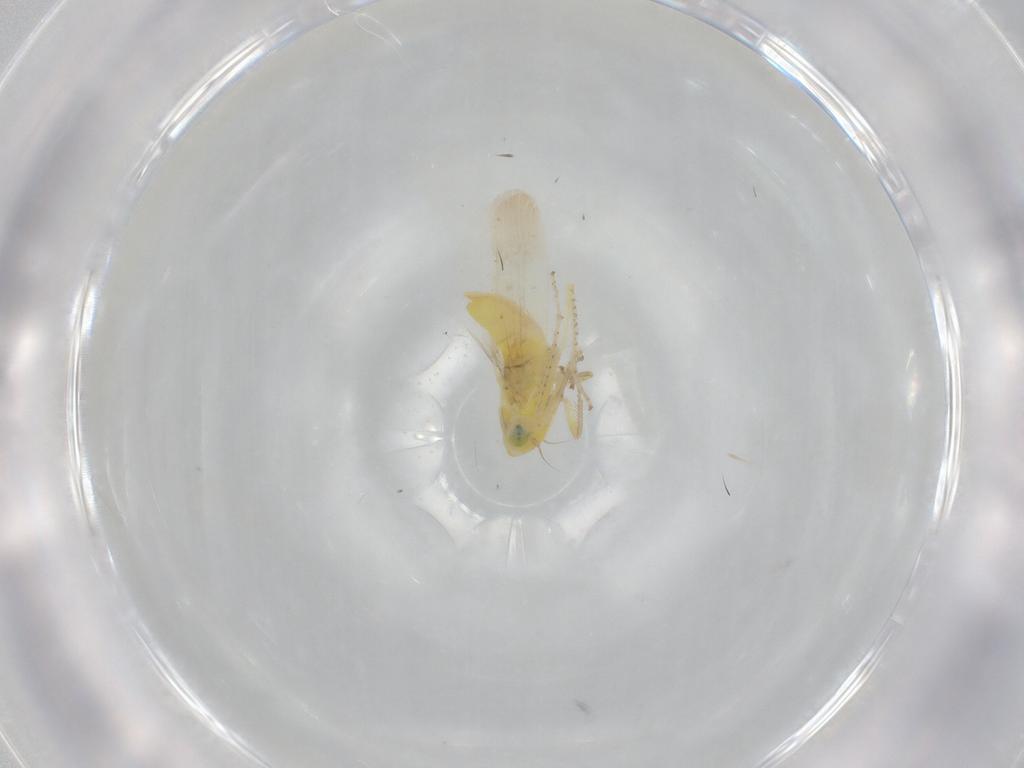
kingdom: Animalia
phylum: Arthropoda
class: Insecta
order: Hemiptera
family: Cicadellidae
